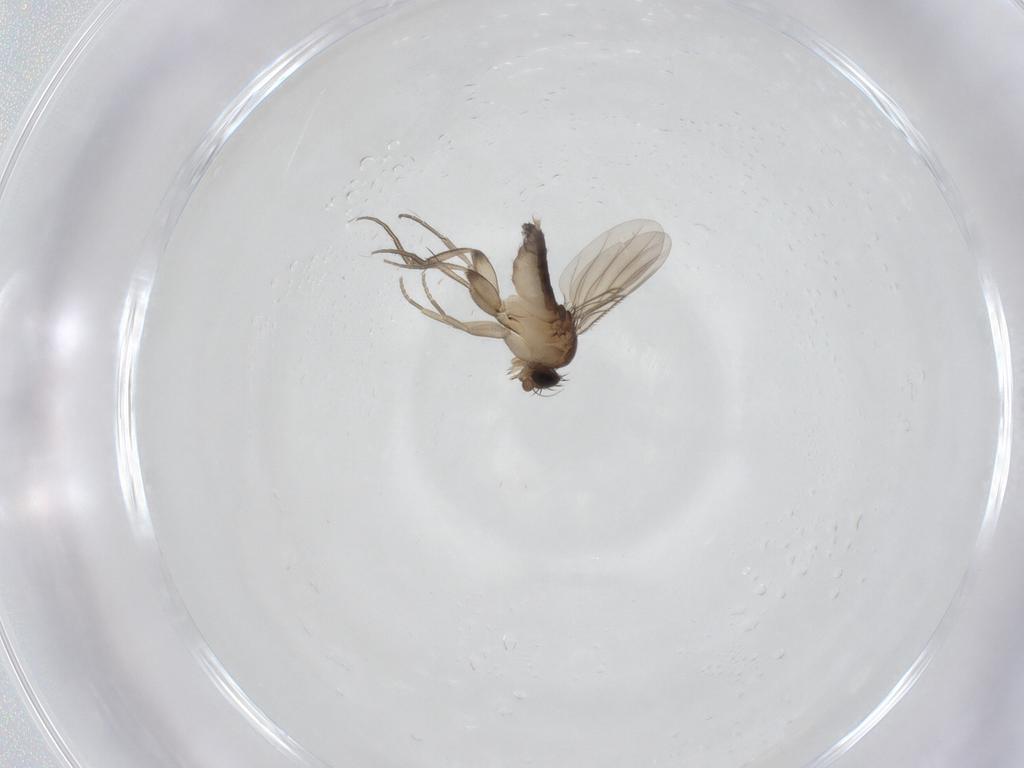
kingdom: Animalia
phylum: Arthropoda
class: Insecta
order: Diptera
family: Phoridae
